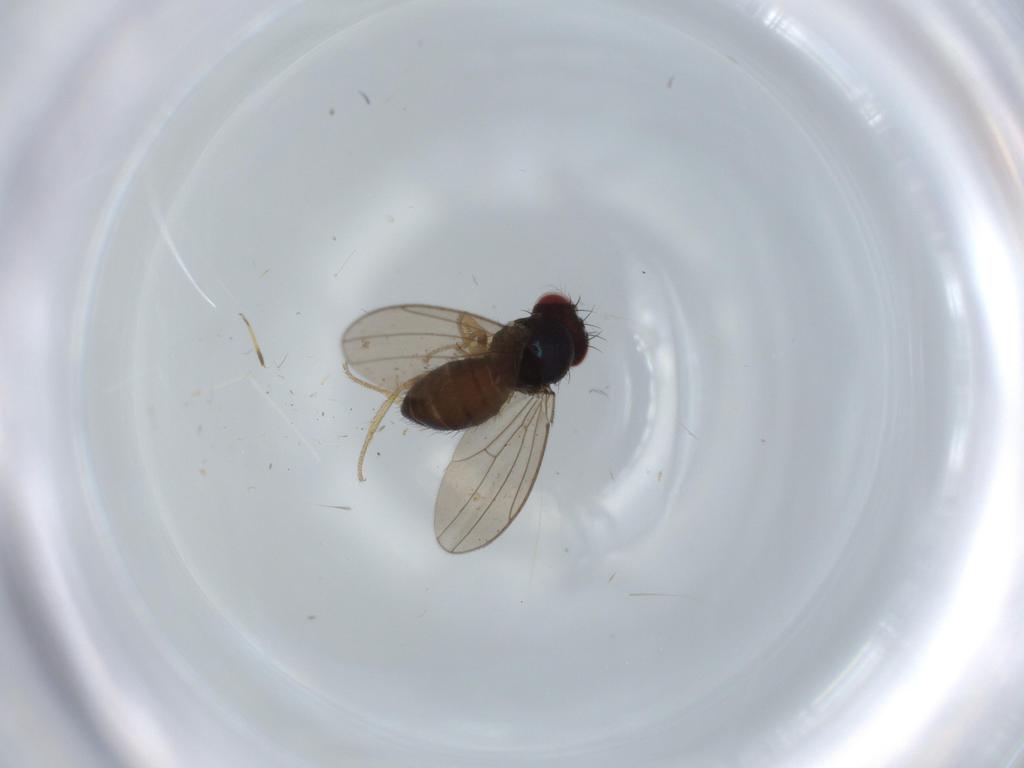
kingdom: Animalia
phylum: Arthropoda
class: Insecta
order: Diptera
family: Drosophilidae
